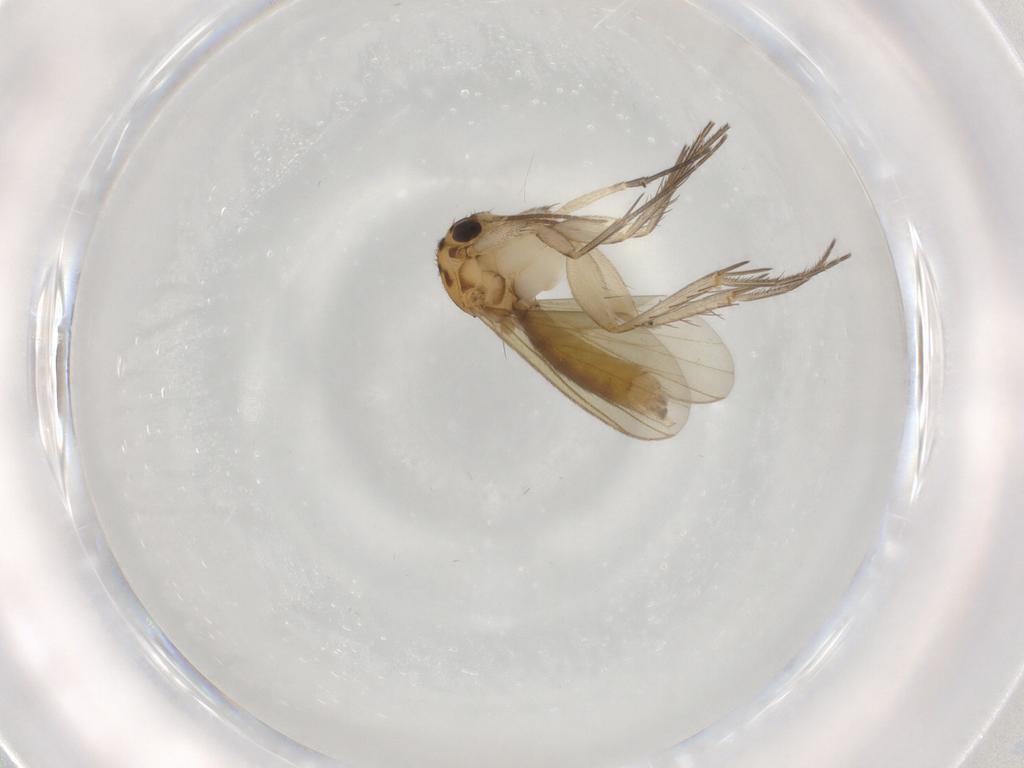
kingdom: Animalia
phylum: Arthropoda
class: Insecta
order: Diptera
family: Mycetophilidae
